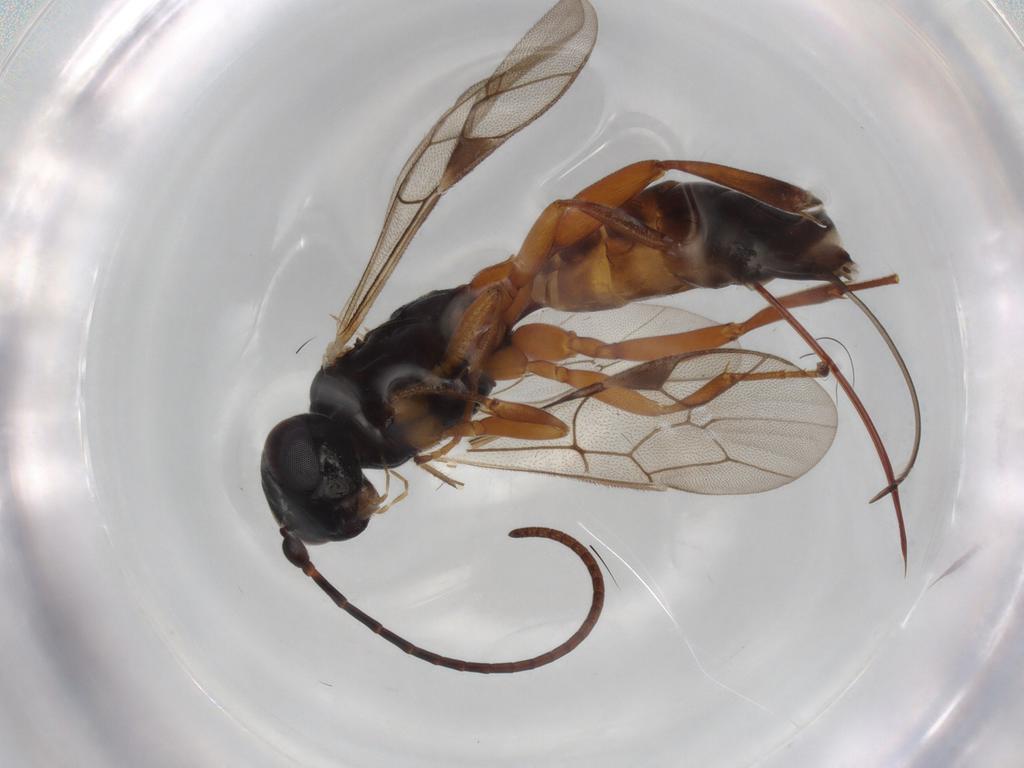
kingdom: Animalia
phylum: Arthropoda
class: Insecta
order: Hymenoptera
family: Ichneumonidae
